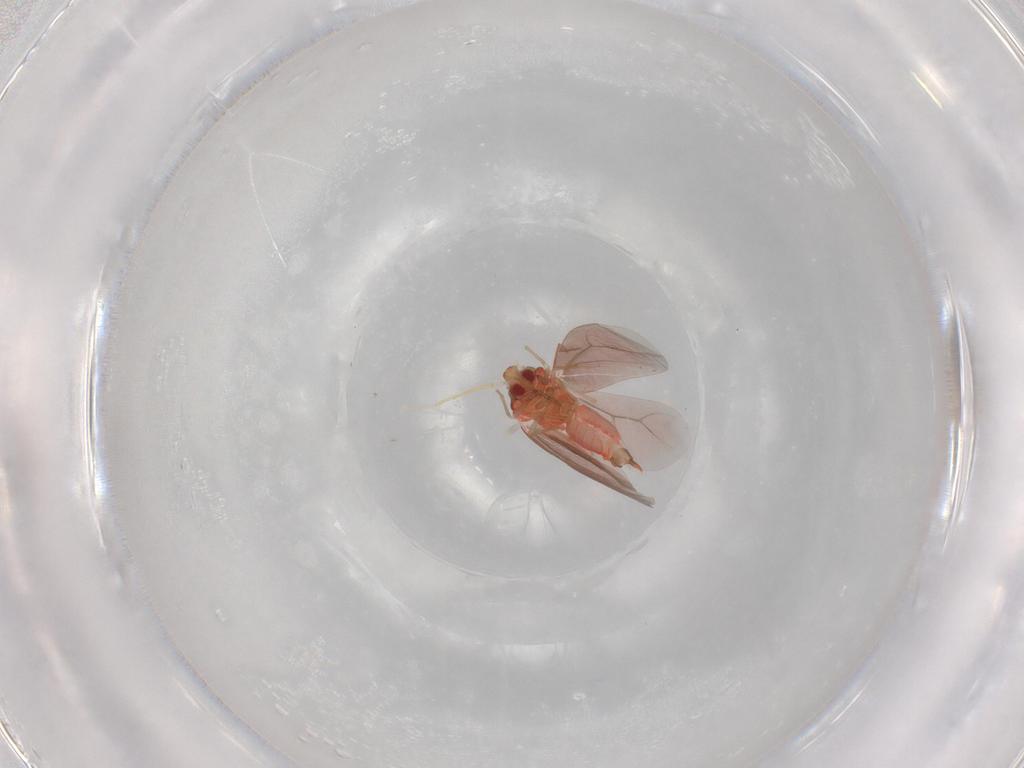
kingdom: Animalia
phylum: Arthropoda
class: Insecta
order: Hemiptera
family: Aleyrodidae
